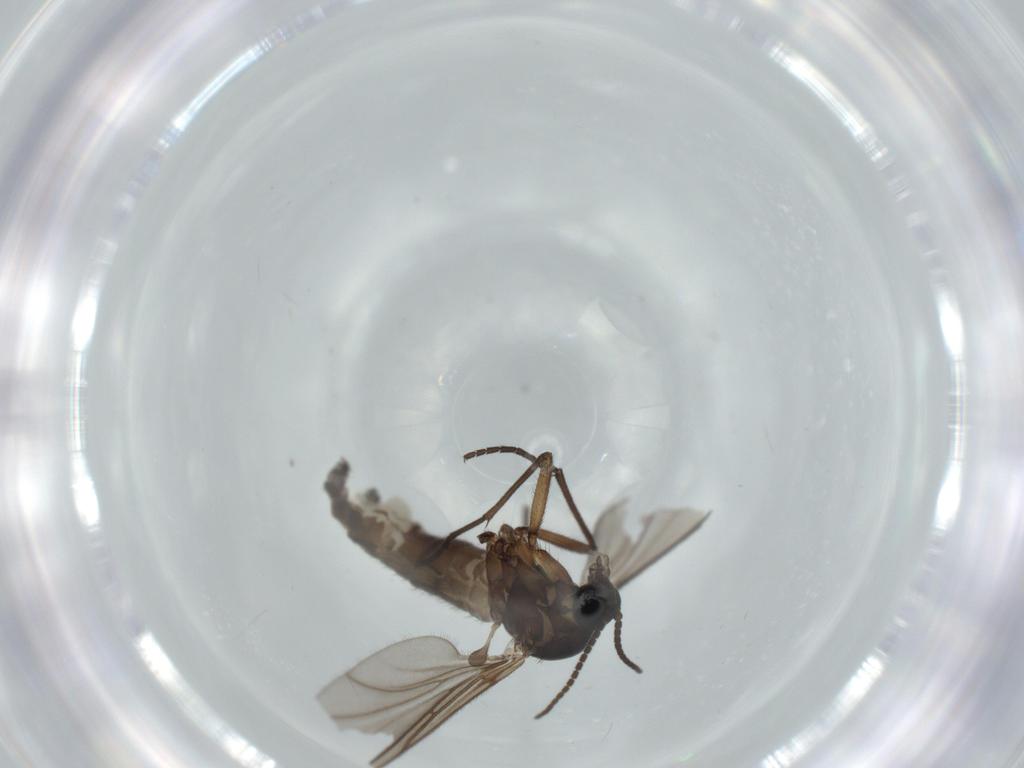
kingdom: Animalia
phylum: Arthropoda
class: Insecta
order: Diptera
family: Sciaridae
